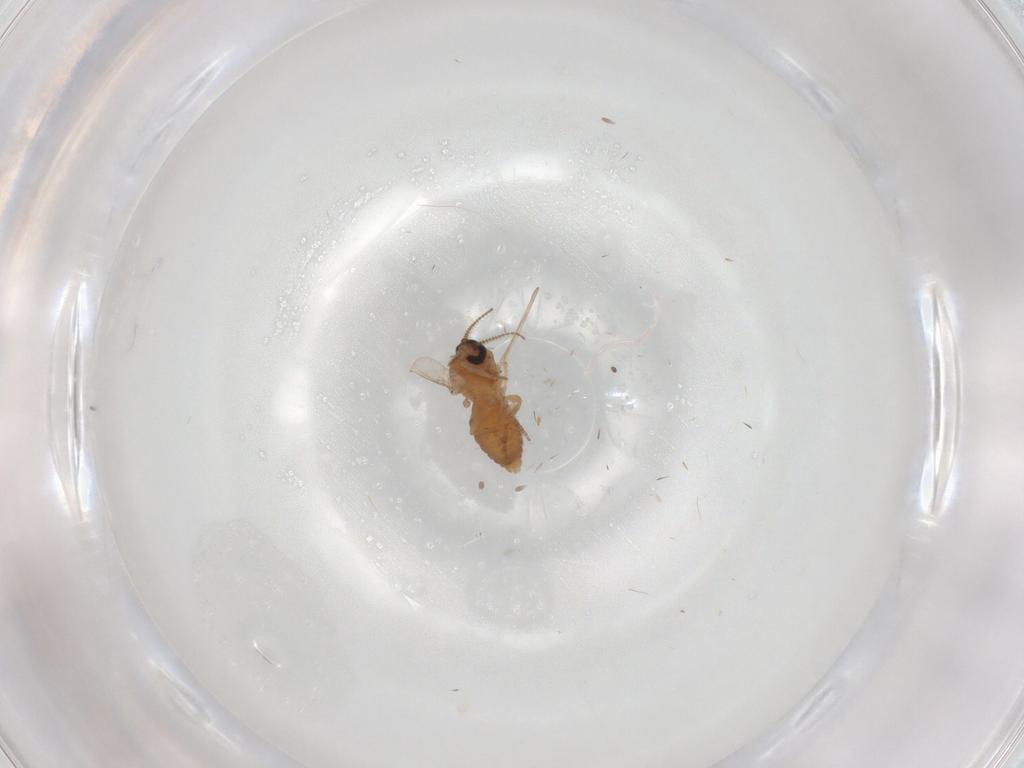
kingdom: Animalia
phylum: Arthropoda
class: Insecta
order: Diptera
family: Ceratopogonidae
